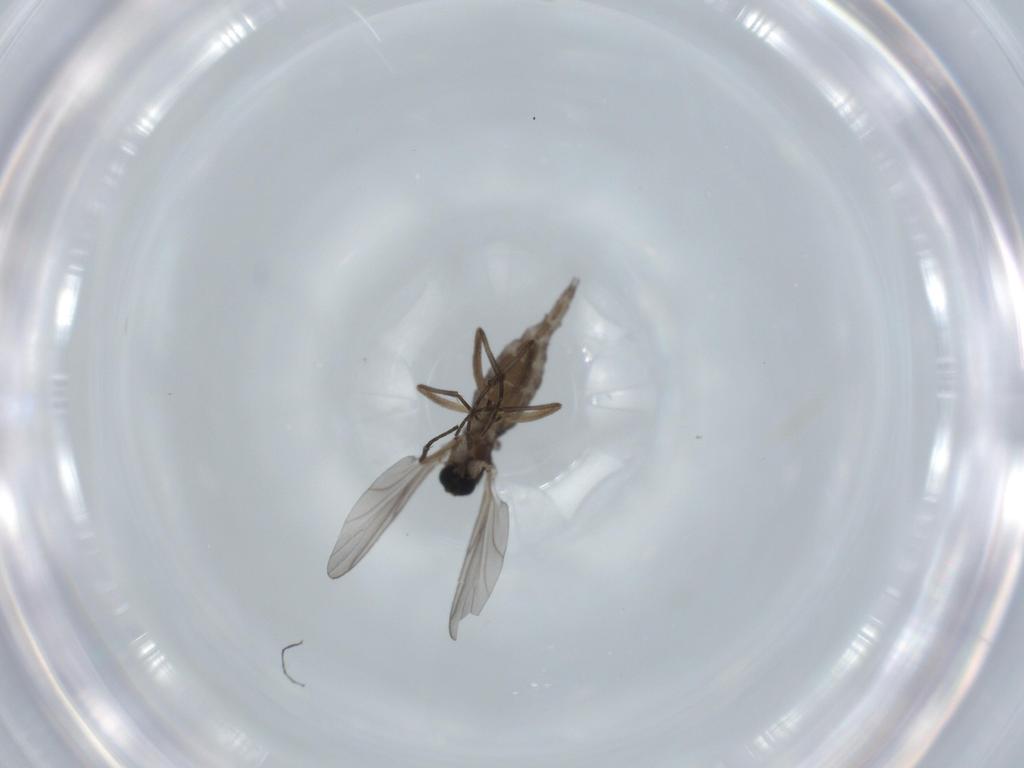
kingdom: Animalia
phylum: Arthropoda
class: Insecta
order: Diptera
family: Sciaridae
